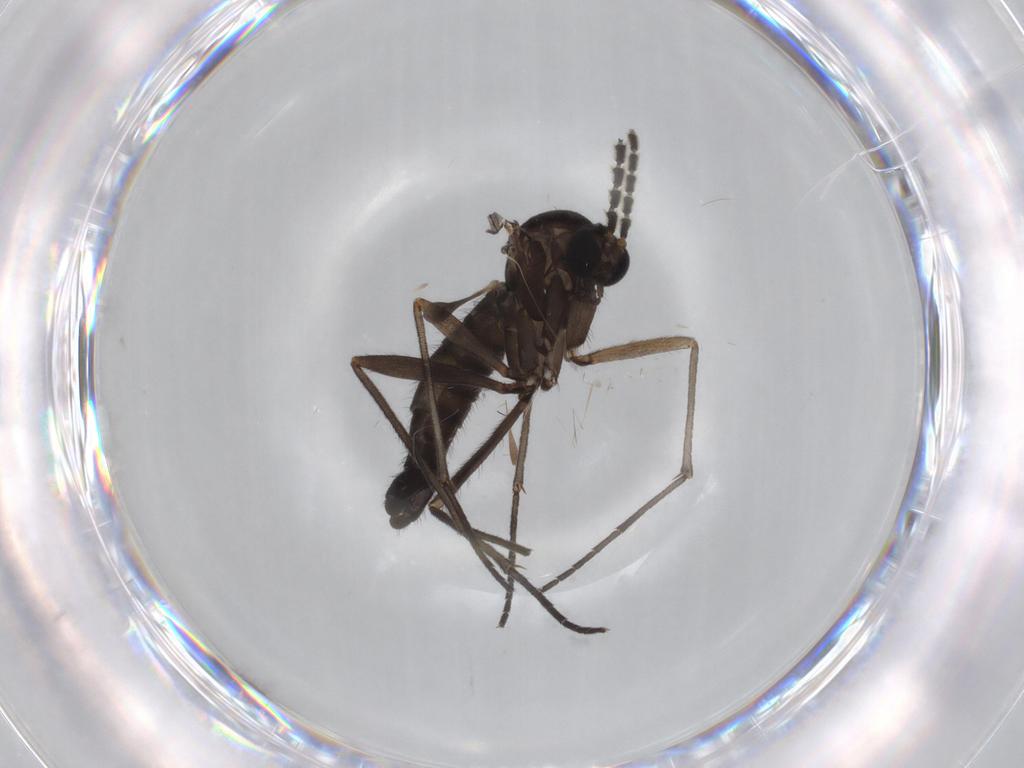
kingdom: Animalia
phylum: Arthropoda
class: Insecta
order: Diptera
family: Sciaridae
